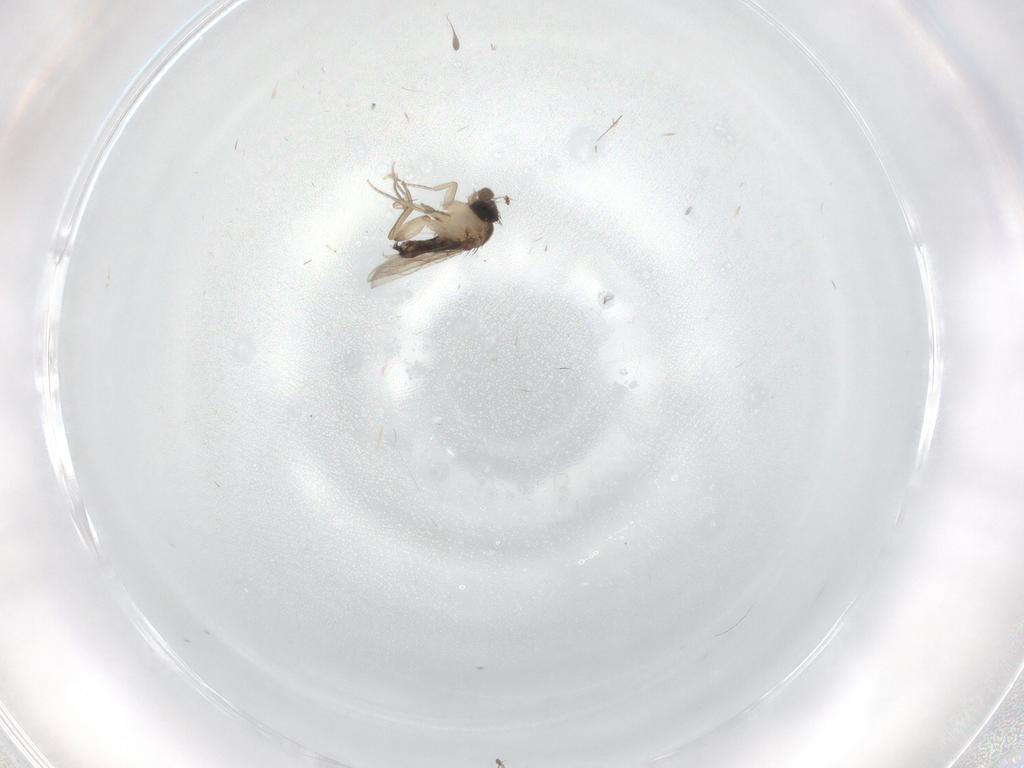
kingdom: Animalia
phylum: Arthropoda
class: Insecta
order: Diptera
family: Phoridae
